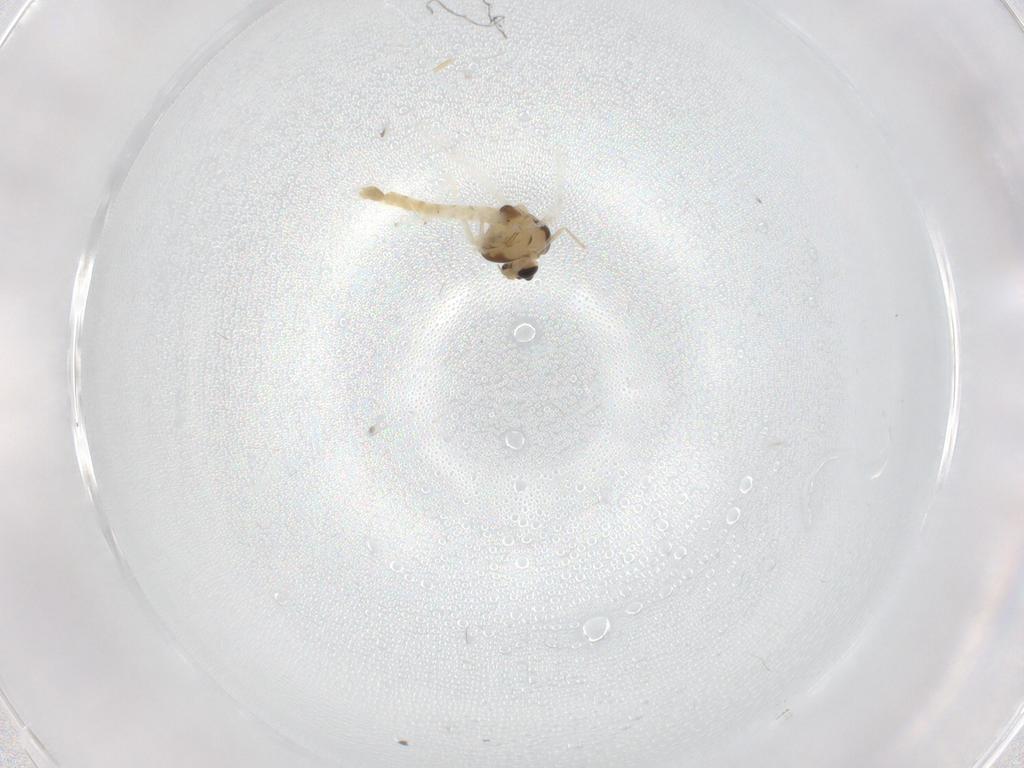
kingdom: Animalia
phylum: Arthropoda
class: Insecta
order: Diptera
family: Chironomidae
